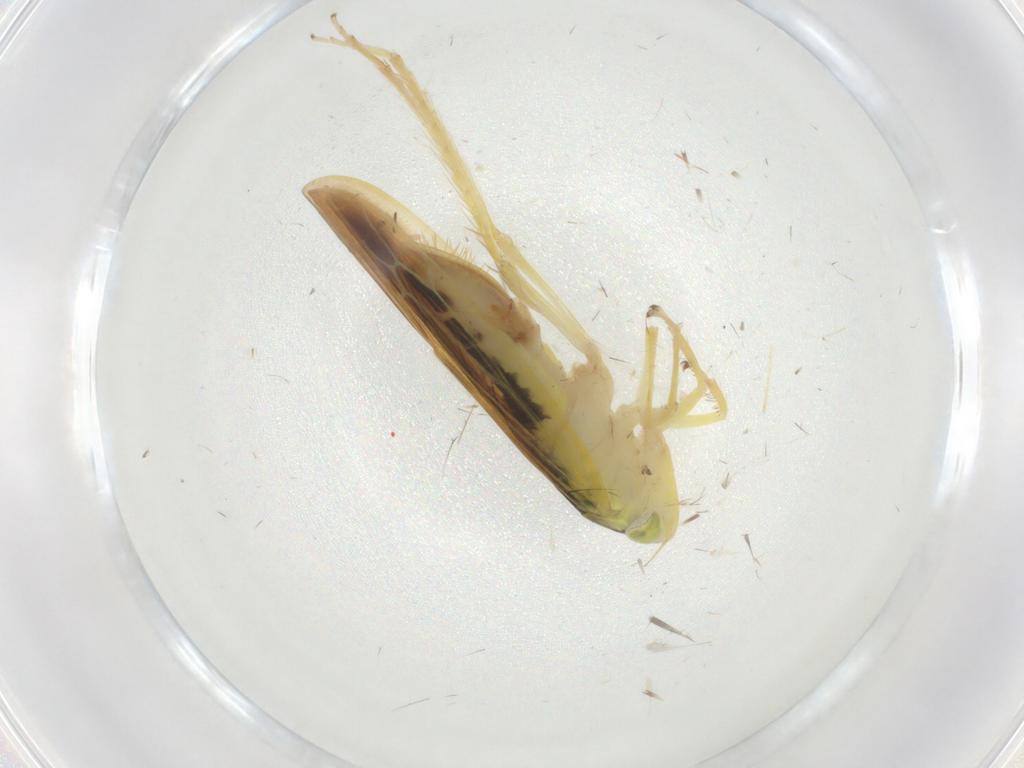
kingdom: Animalia
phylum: Arthropoda
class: Insecta
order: Hemiptera
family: Cicadellidae
